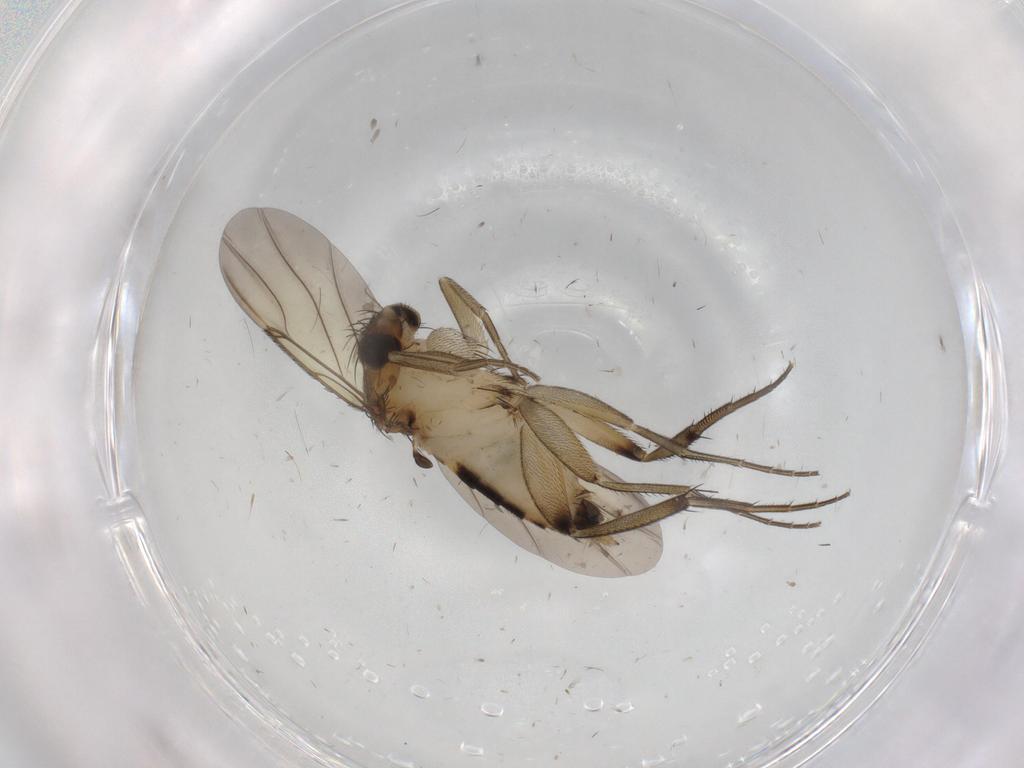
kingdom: Animalia
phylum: Arthropoda
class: Insecta
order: Diptera
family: Phoridae
